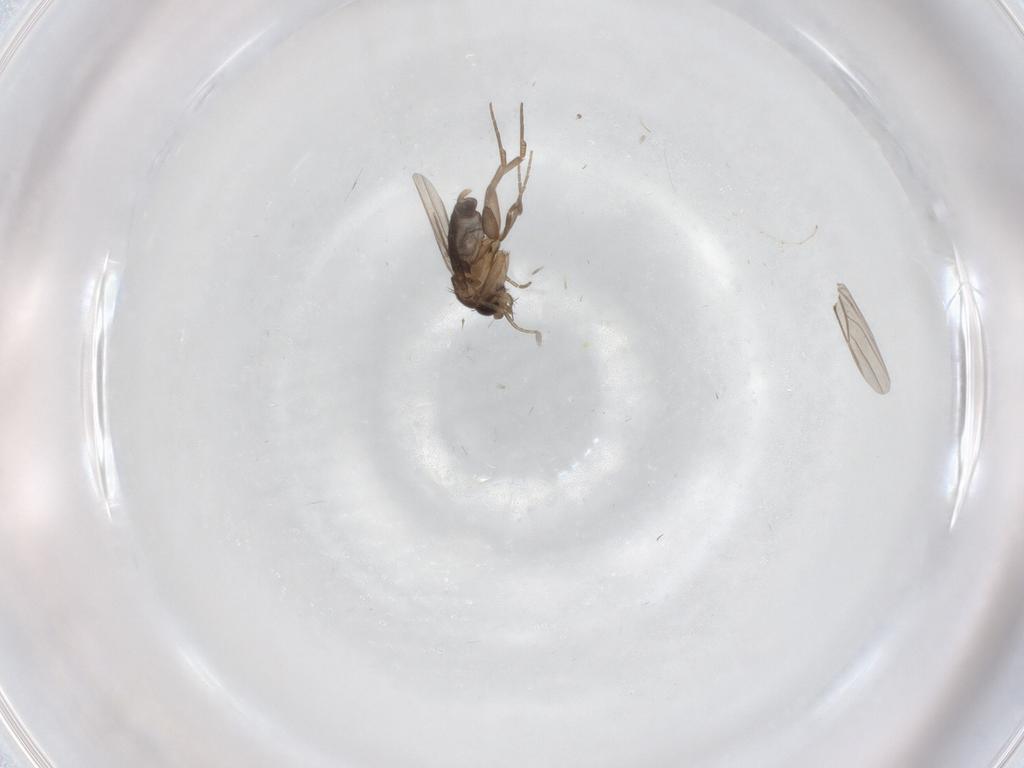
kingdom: Animalia
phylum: Arthropoda
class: Insecta
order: Diptera
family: Phoridae
